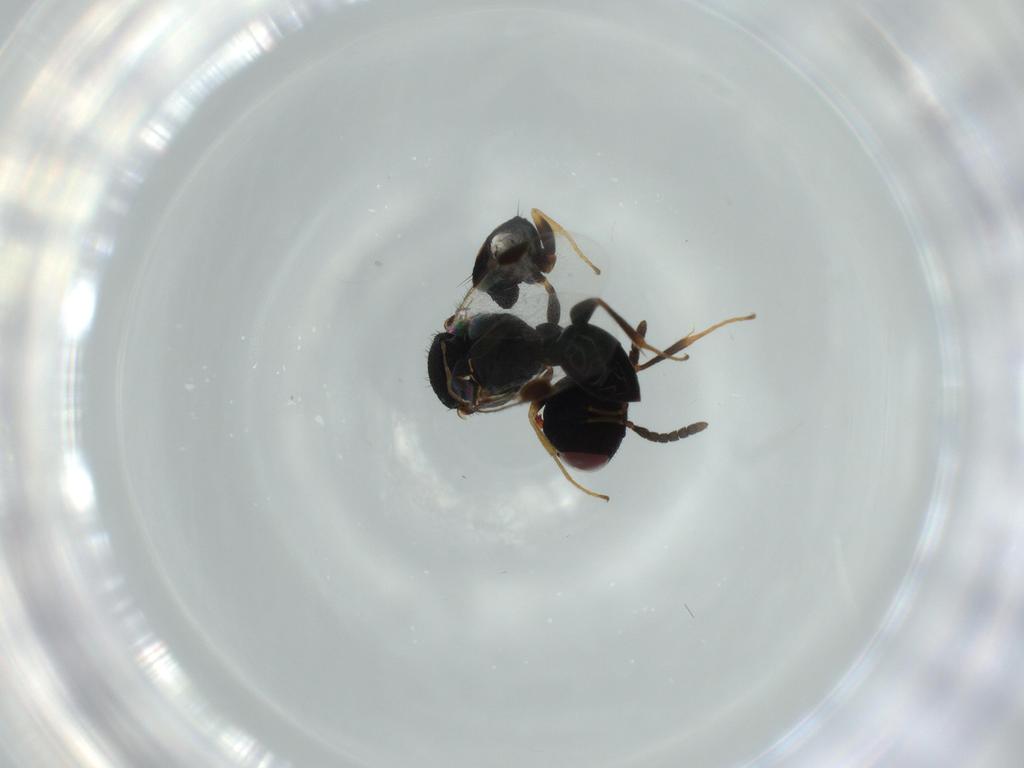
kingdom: Animalia
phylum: Arthropoda
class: Insecta
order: Hymenoptera
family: Dryinidae
